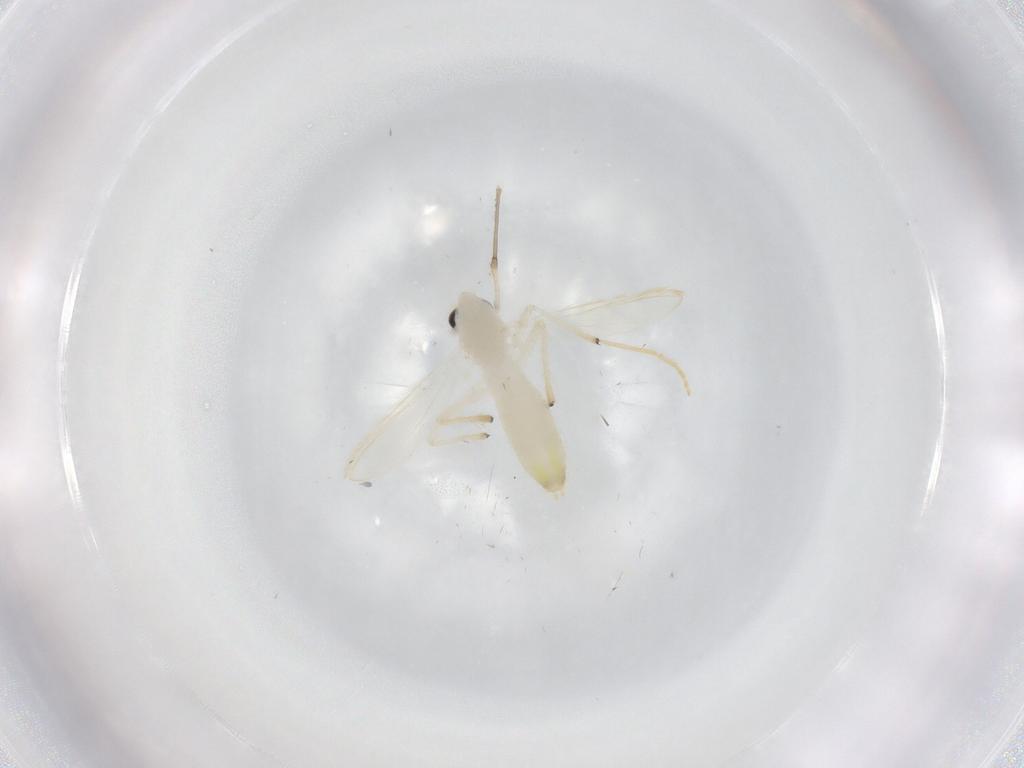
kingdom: Animalia
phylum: Arthropoda
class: Insecta
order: Diptera
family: Chironomidae
